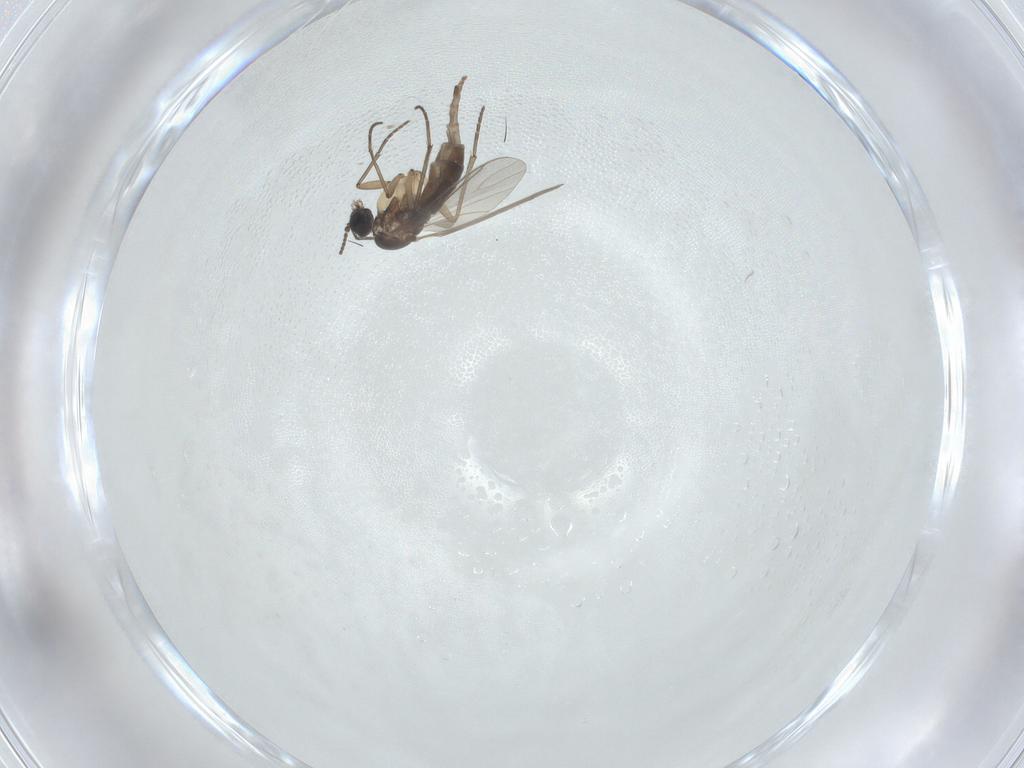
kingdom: Animalia
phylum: Arthropoda
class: Insecta
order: Diptera
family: Sciaridae
